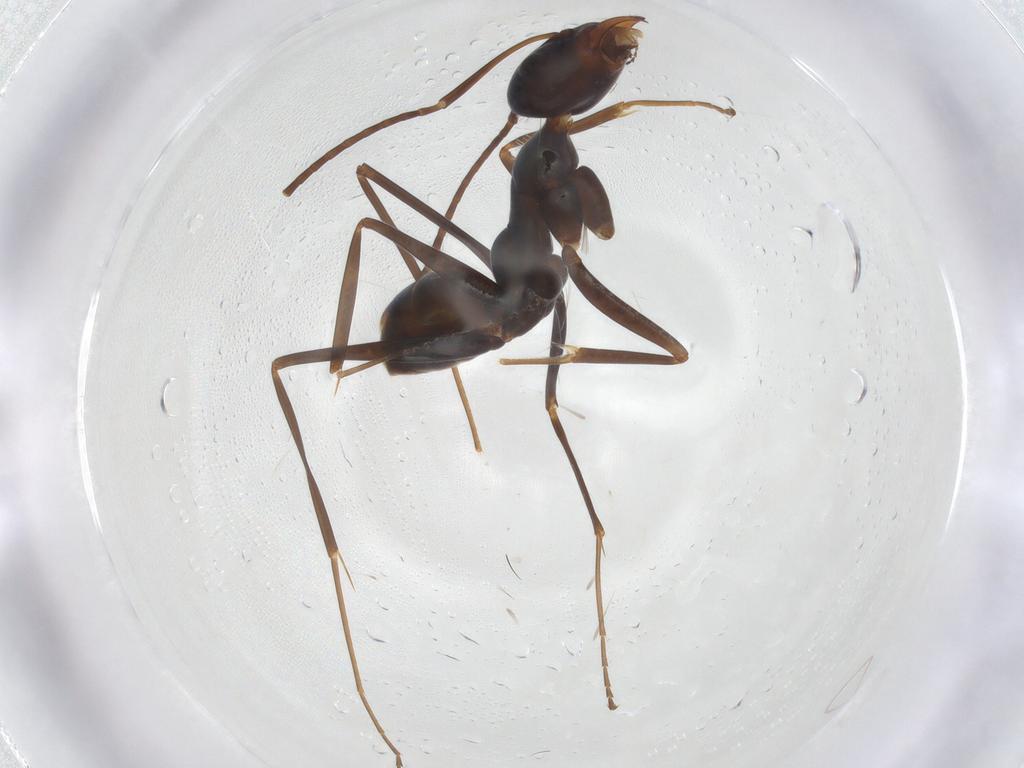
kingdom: Animalia
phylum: Arthropoda
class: Insecta
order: Hymenoptera
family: Formicidae
